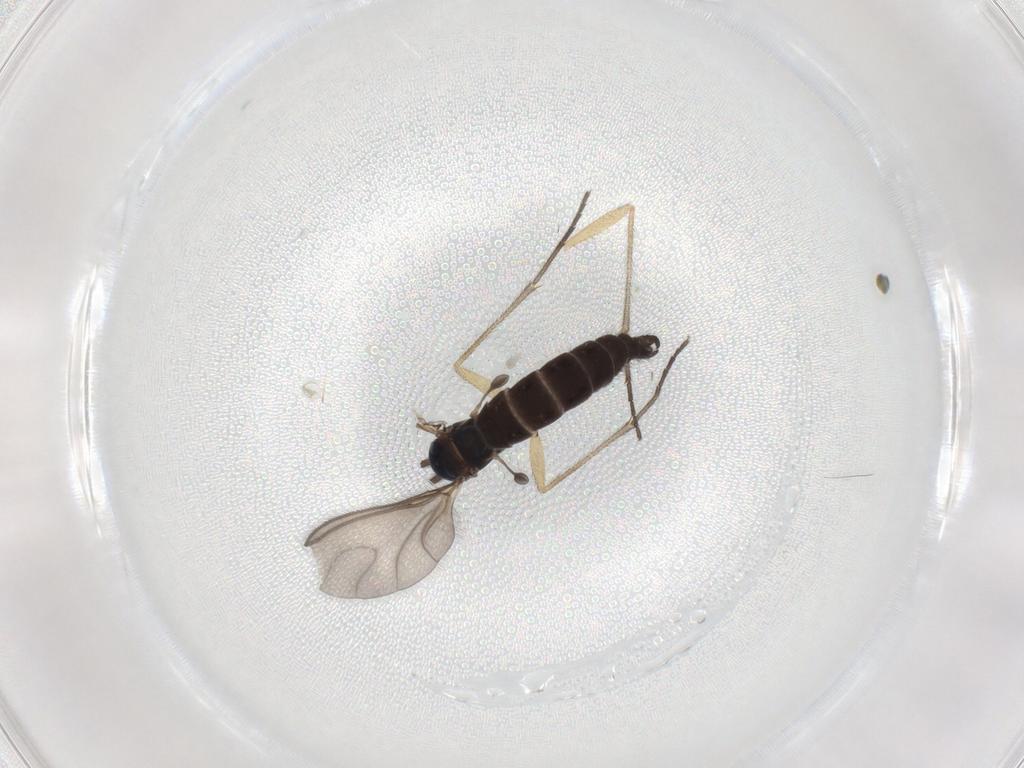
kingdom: Animalia
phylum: Arthropoda
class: Insecta
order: Diptera
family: Sciaridae
